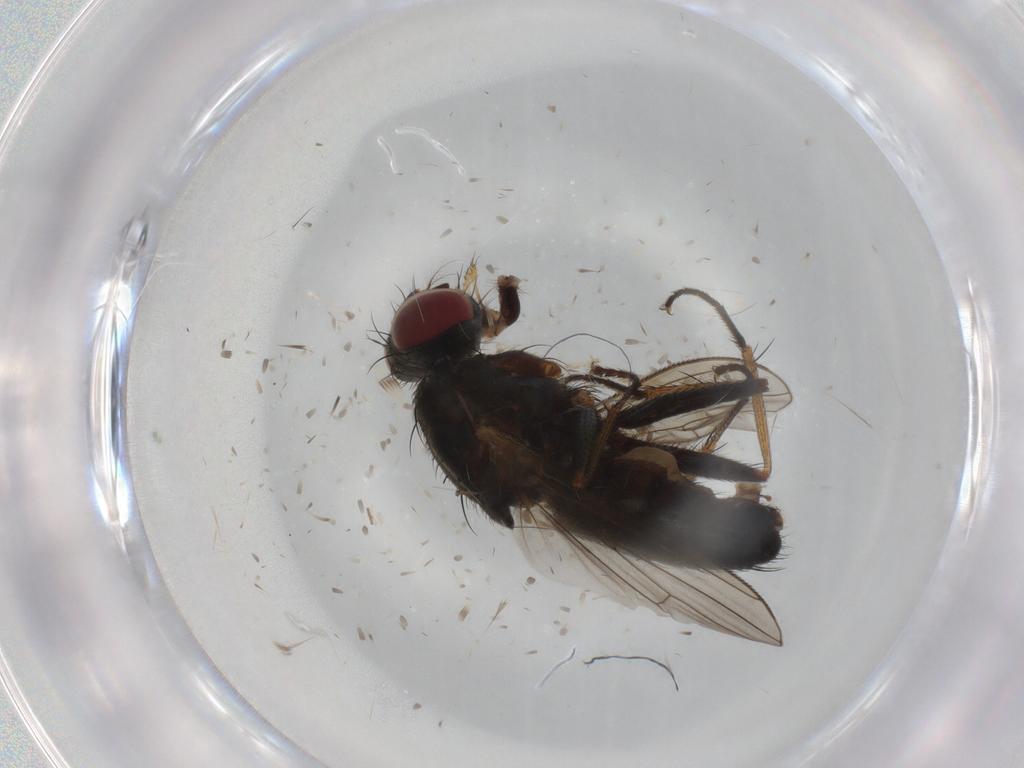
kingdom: Animalia
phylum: Arthropoda
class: Insecta
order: Diptera
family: Muscidae
